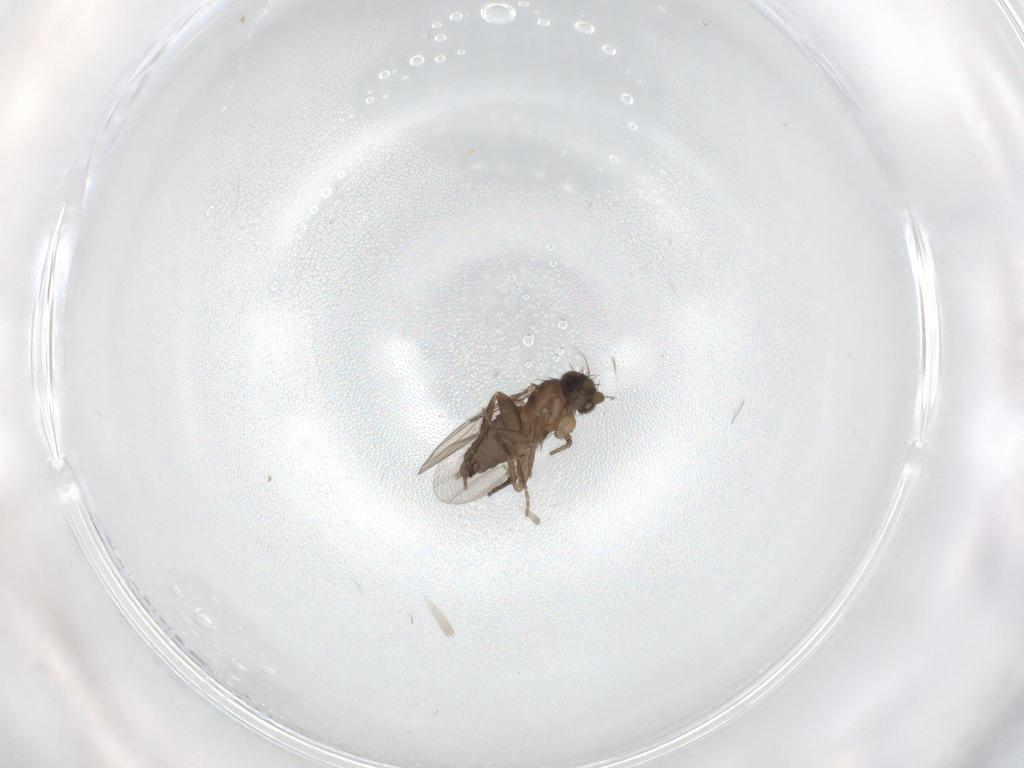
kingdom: Animalia
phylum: Arthropoda
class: Insecta
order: Diptera
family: Phoridae
